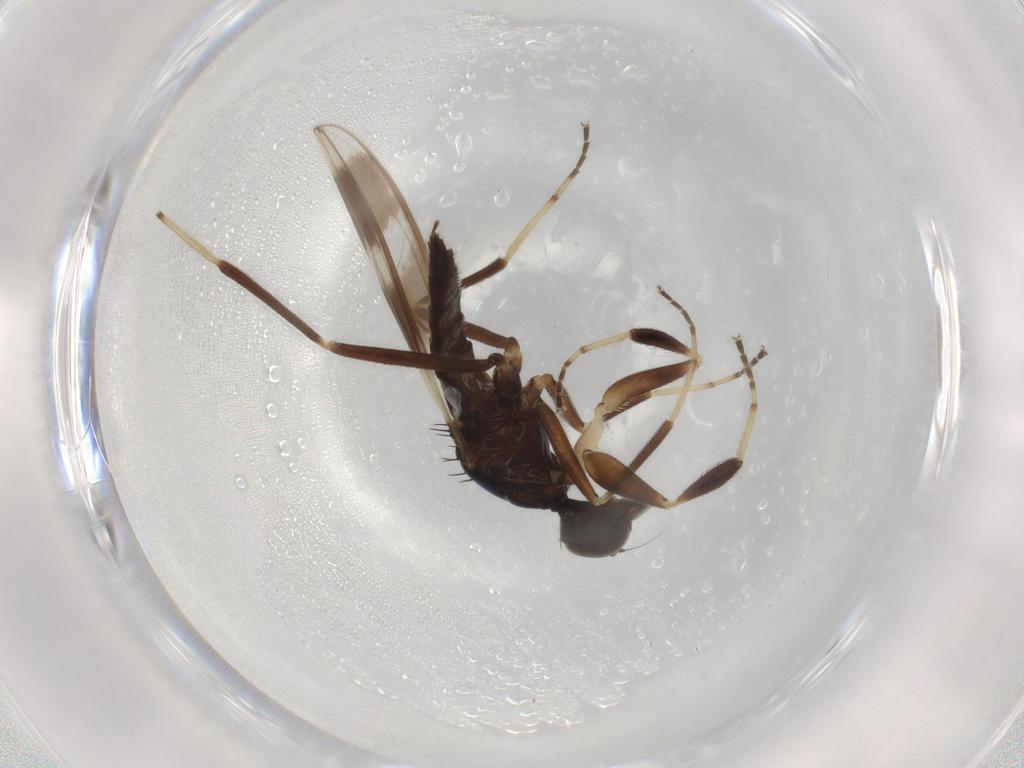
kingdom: Animalia
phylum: Arthropoda
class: Insecta
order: Diptera
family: Hybotidae
